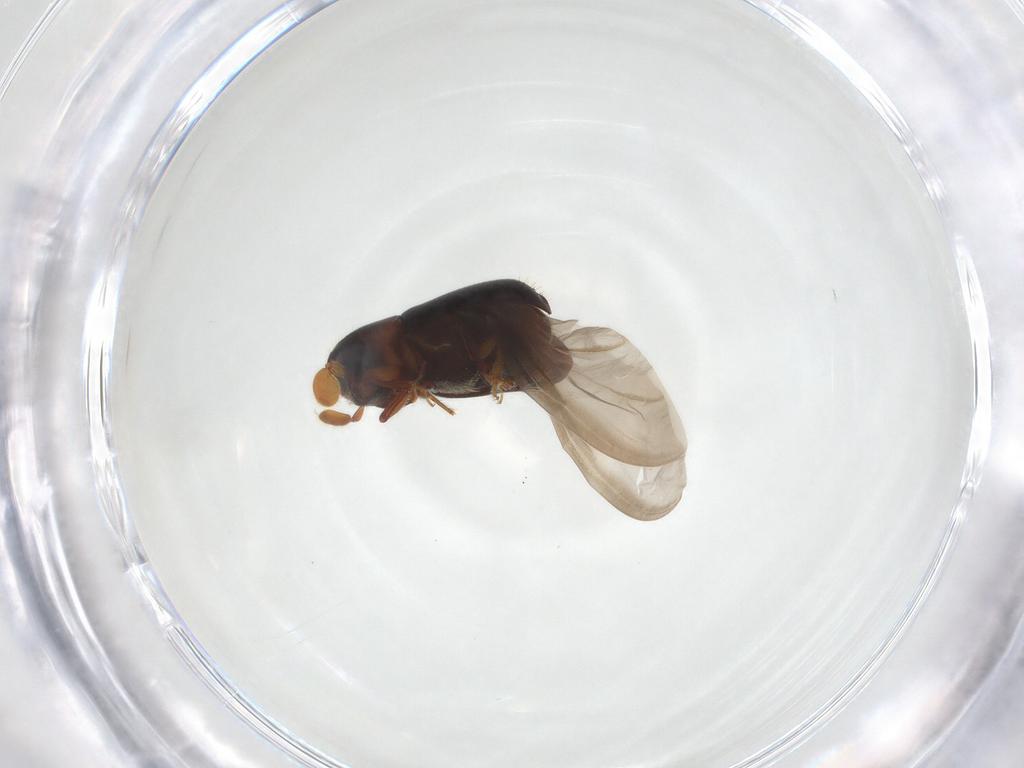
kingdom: Animalia
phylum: Arthropoda
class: Insecta
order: Coleoptera
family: Curculionidae
